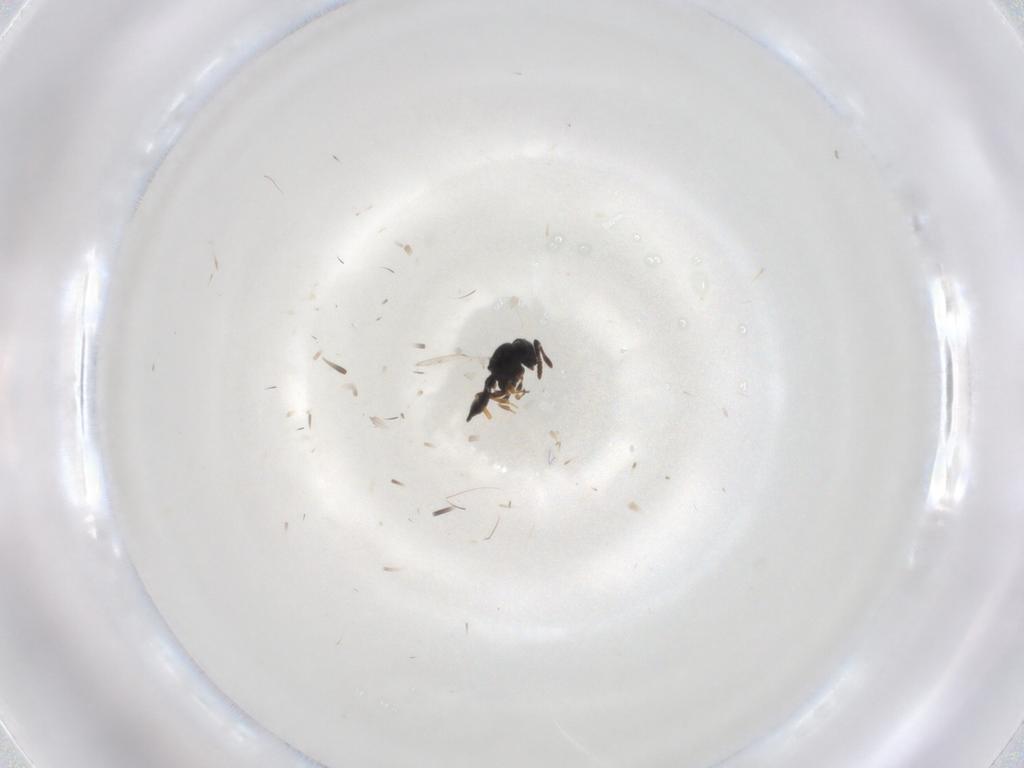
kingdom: Animalia
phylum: Arthropoda
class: Insecta
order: Hymenoptera
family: Scelionidae
